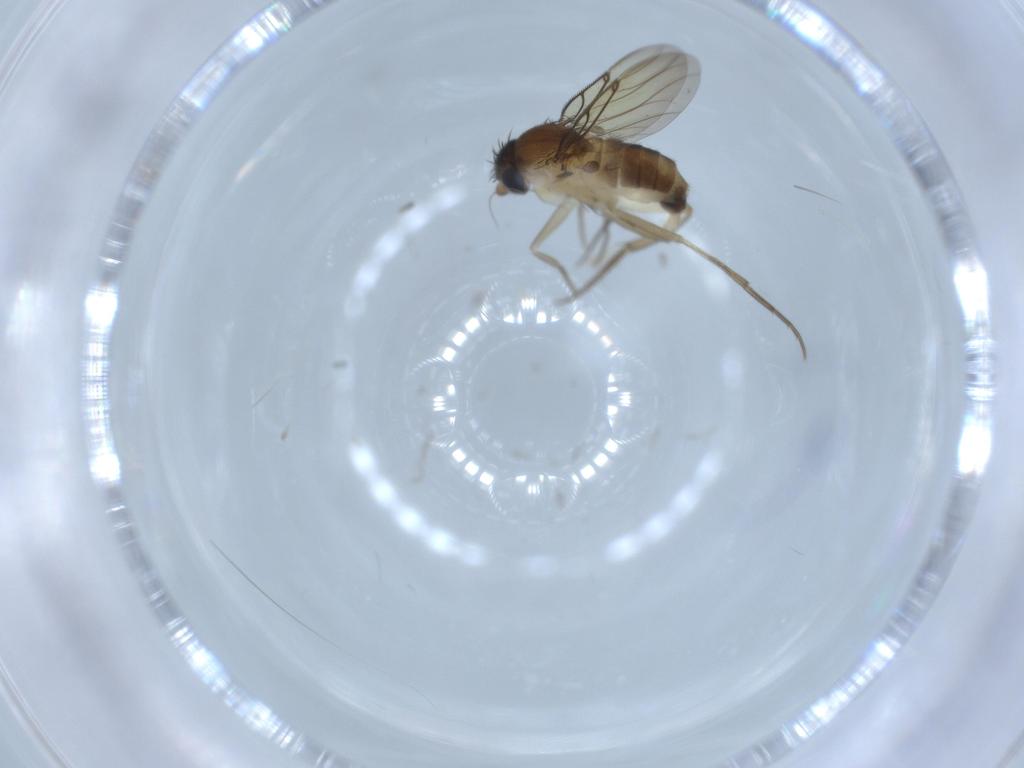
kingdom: Animalia
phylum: Arthropoda
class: Insecta
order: Diptera
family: Phoridae
